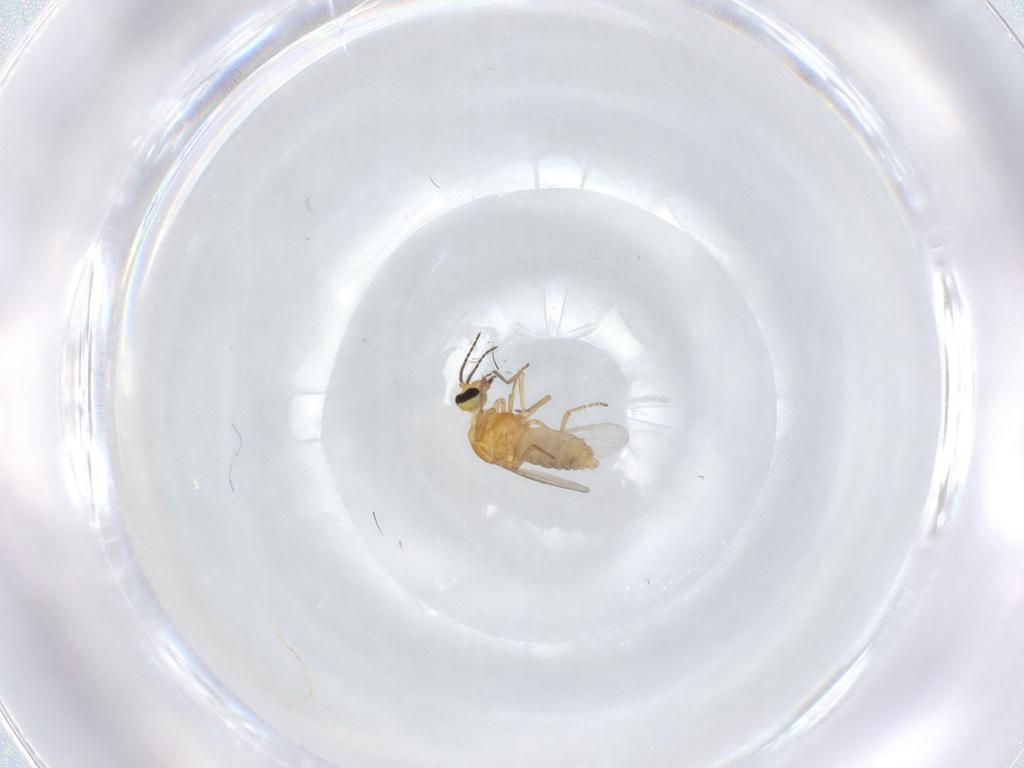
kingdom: Animalia
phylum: Arthropoda
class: Insecta
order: Diptera
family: Ceratopogonidae
